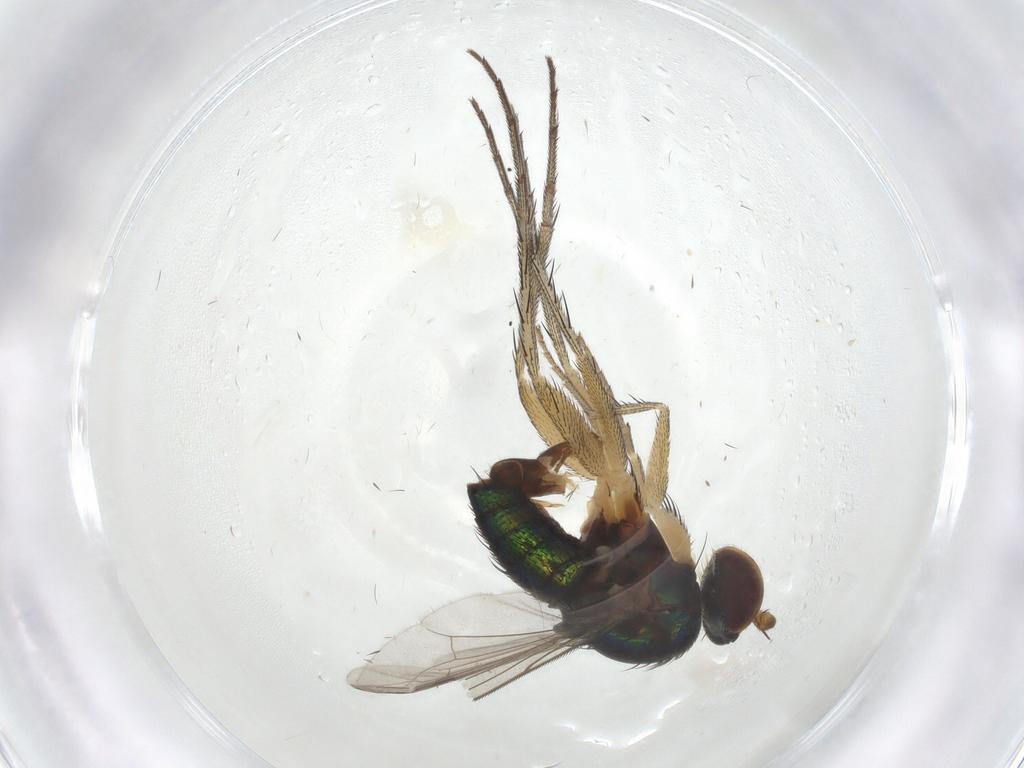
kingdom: Animalia
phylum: Arthropoda
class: Insecta
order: Diptera
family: Dolichopodidae
